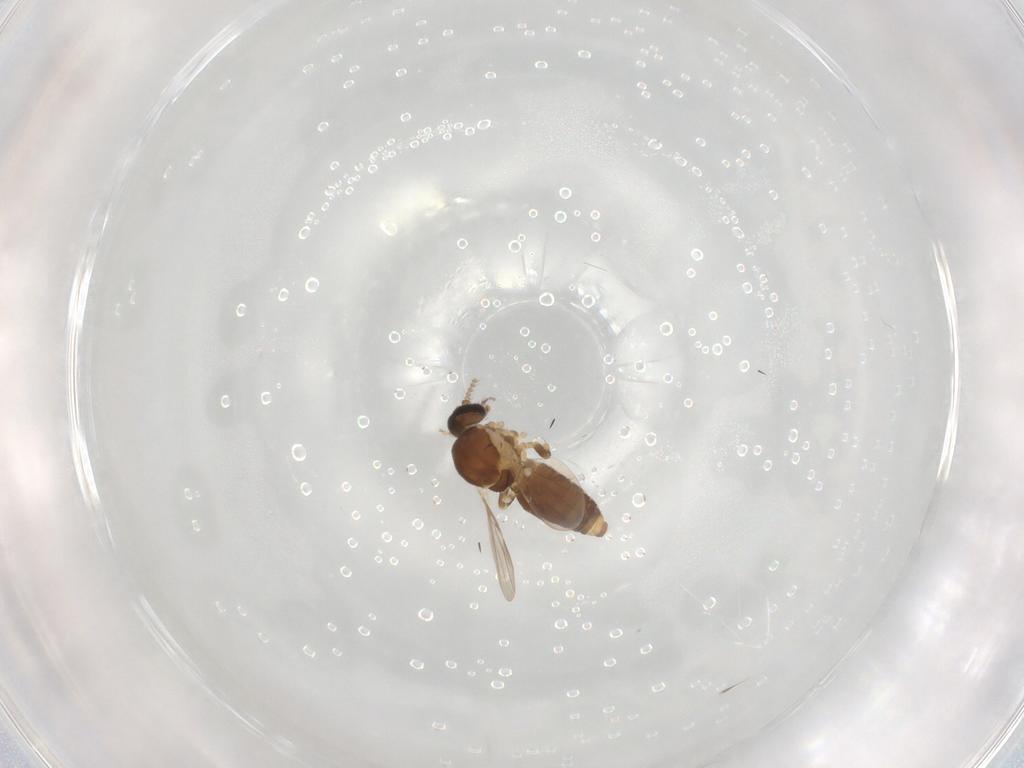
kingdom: Animalia
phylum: Arthropoda
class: Insecta
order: Diptera
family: Ceratopogonidae
